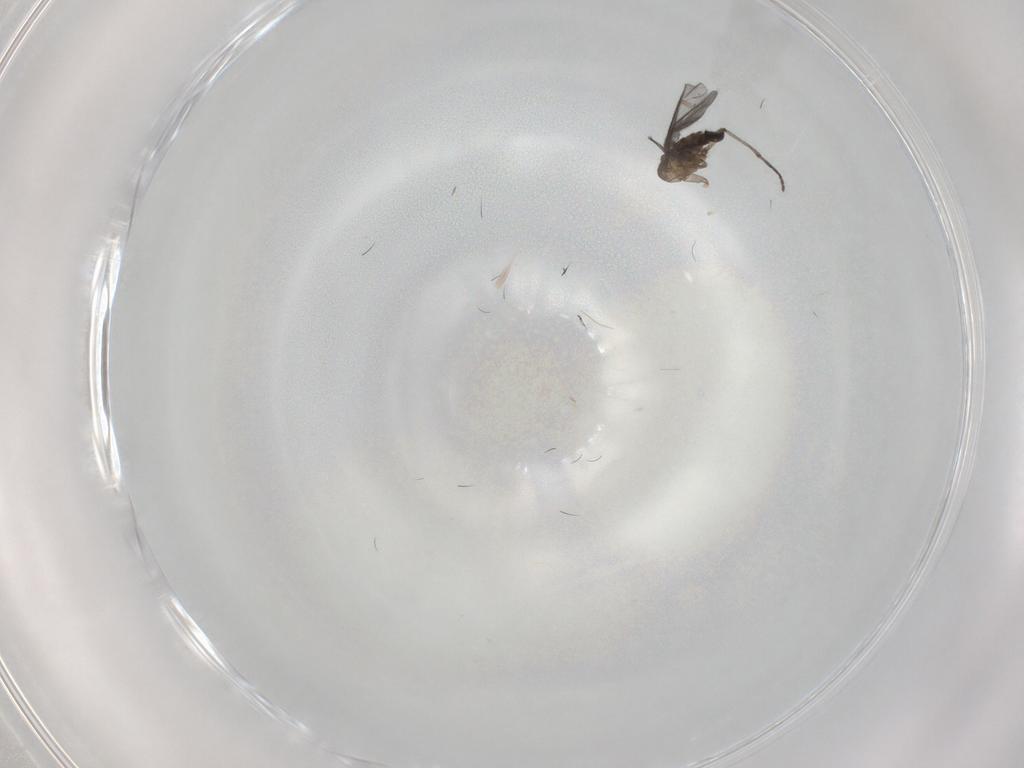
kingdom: Animalia
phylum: Arthropoda
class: Insecta
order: Diptera
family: Sciaridae
